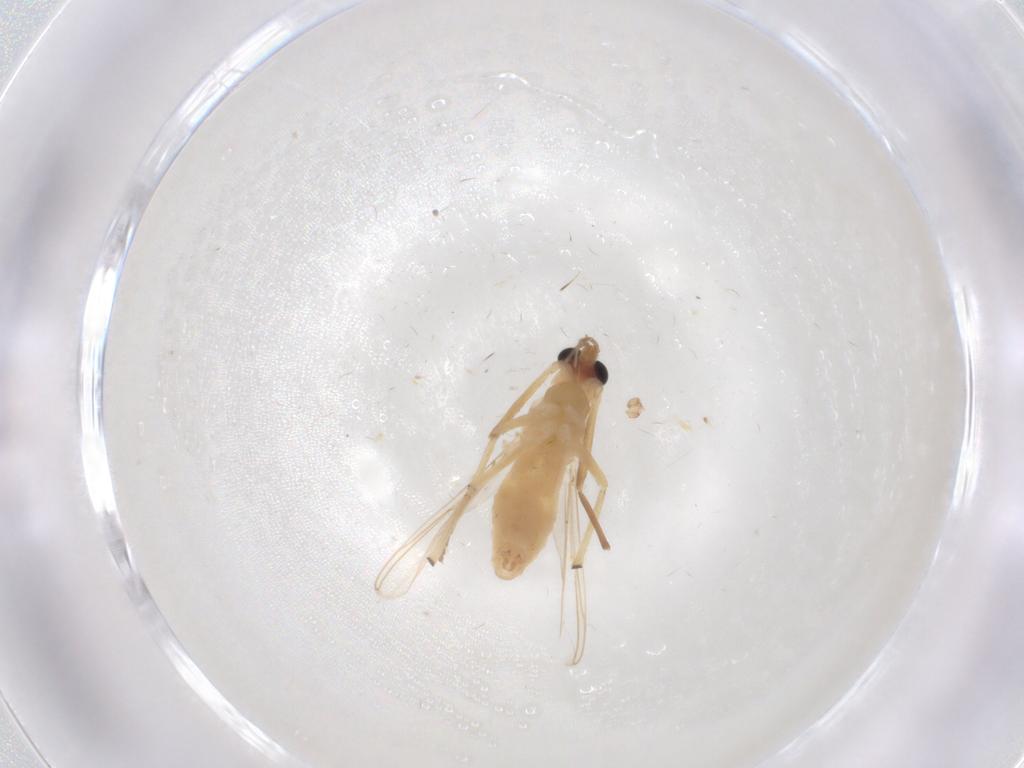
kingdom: Animalia
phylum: Arthropoda
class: Insecta
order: Diptera
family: Chironomidae
